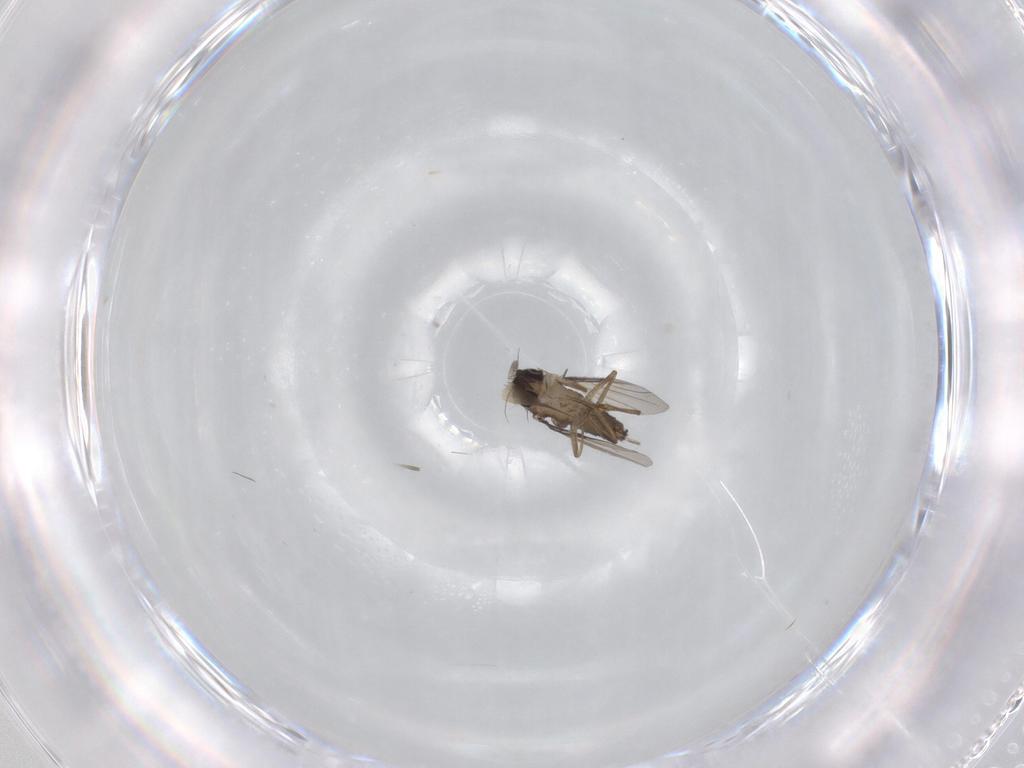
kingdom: Animalia
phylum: Arthropoda
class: Insecta
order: Diptera
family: Phoridae
